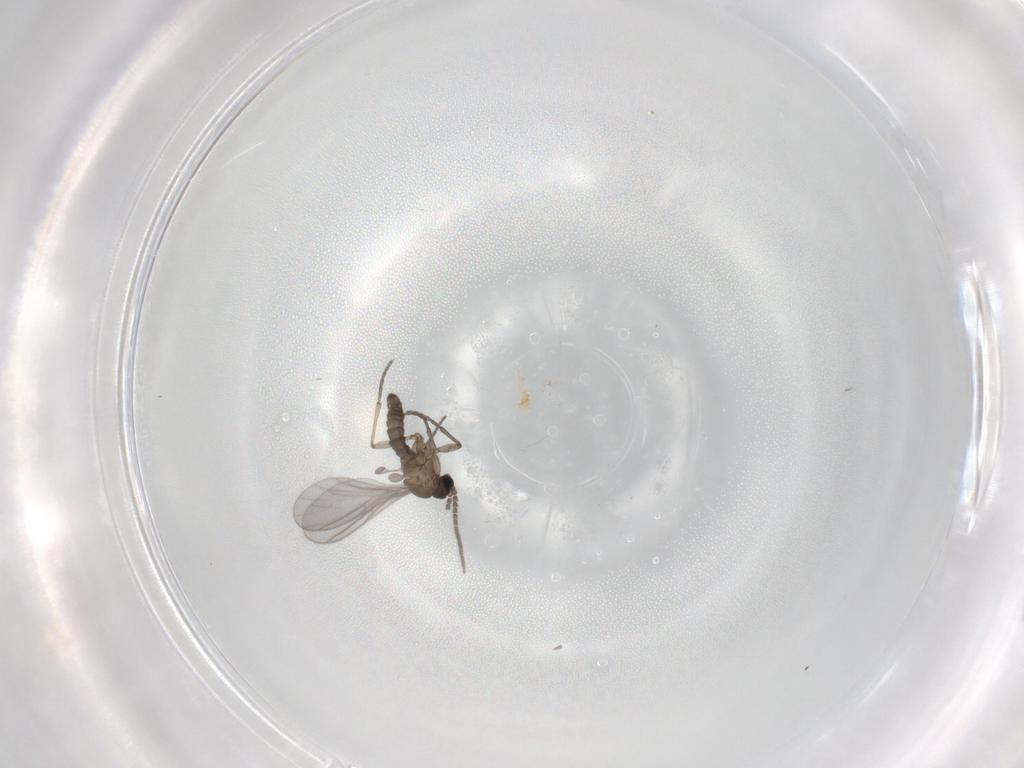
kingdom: Animalia
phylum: Arthropoda
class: Insecta
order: Diptera
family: Sciaridae
